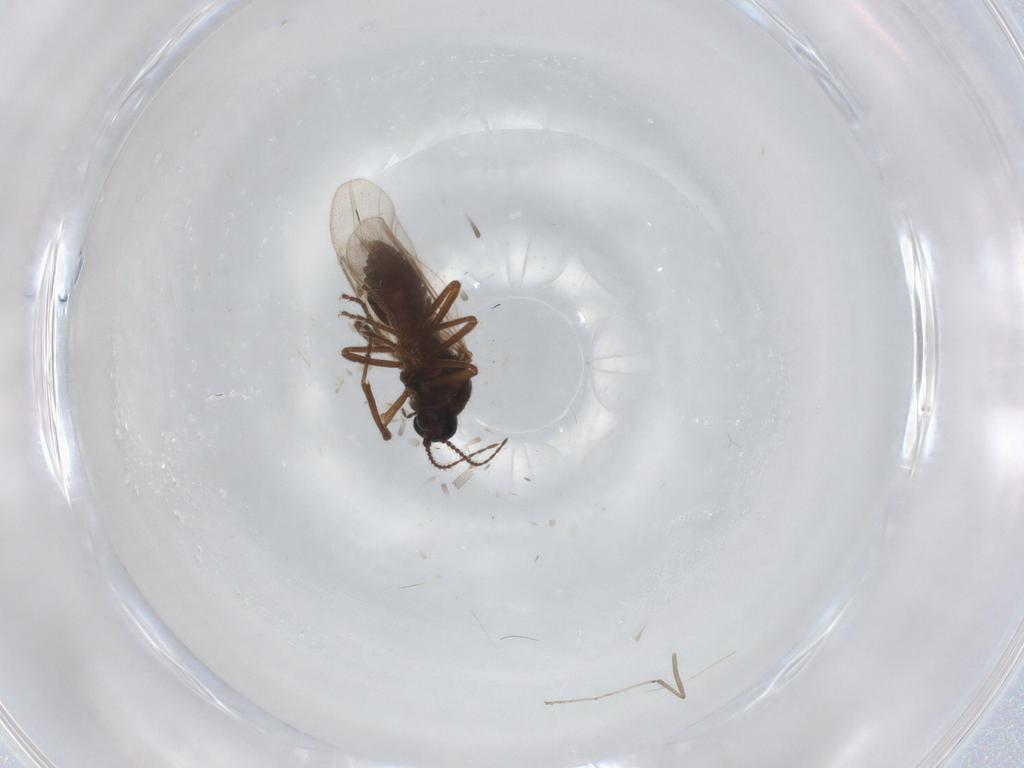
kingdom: Animalia
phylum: Arthropoda
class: Insecta
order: Diptera
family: Ceratopogonidae
